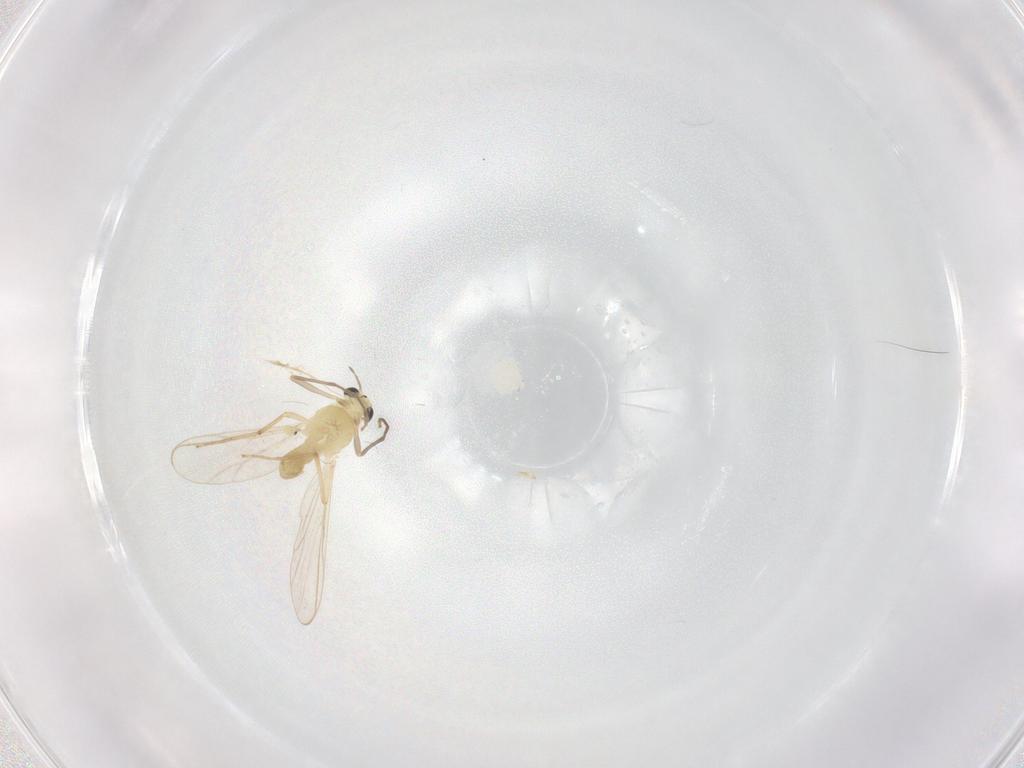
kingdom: Animalia
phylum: Arthropoda
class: Insecta
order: Diptera
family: Chironomidae
